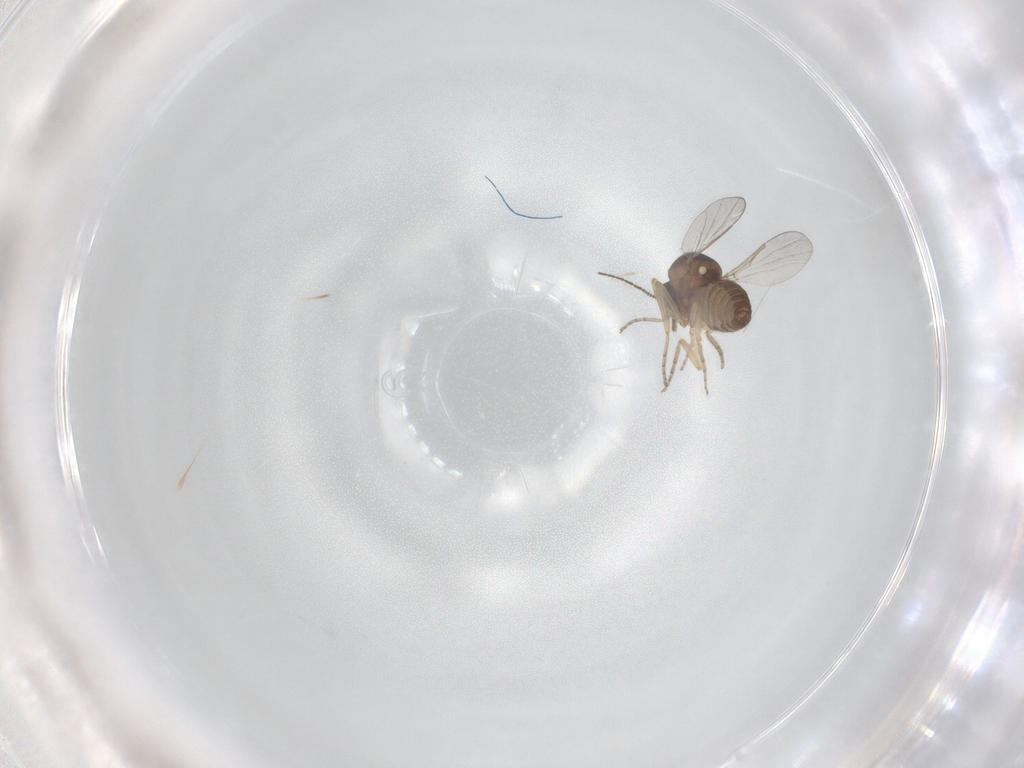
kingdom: Animalia
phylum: Arthropoda
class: Insecta
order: Diptera
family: Ceratopogonidae
